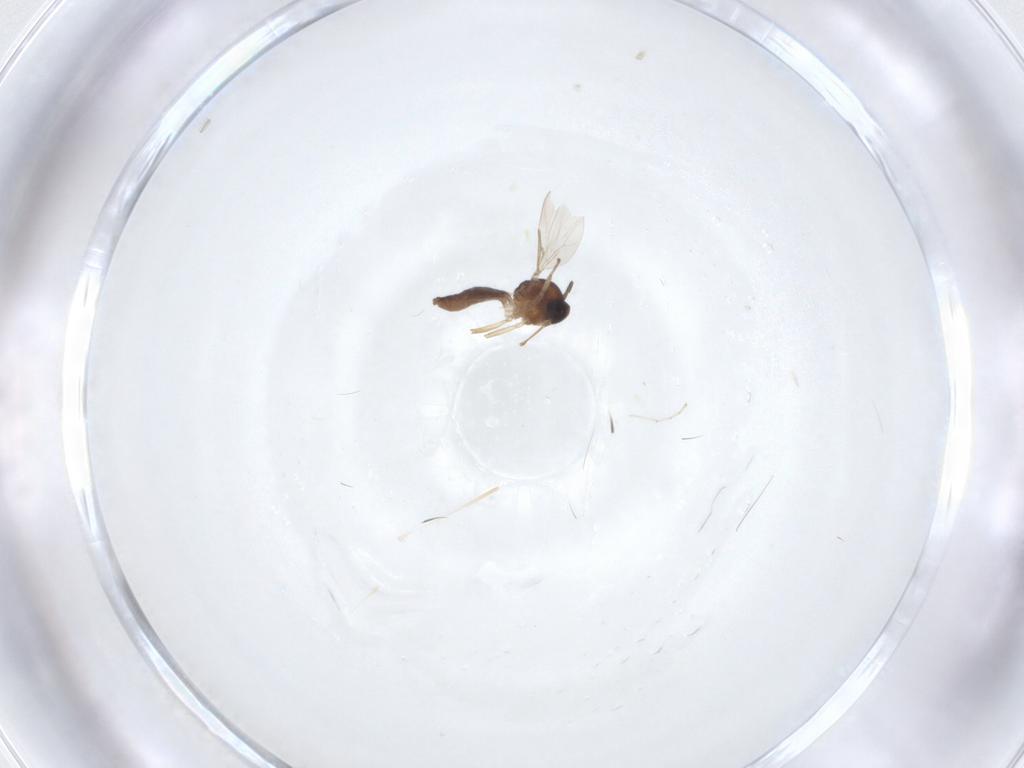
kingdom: Animalia
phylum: Arthropoda
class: Insecta
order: Diptera
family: Sciaridae
